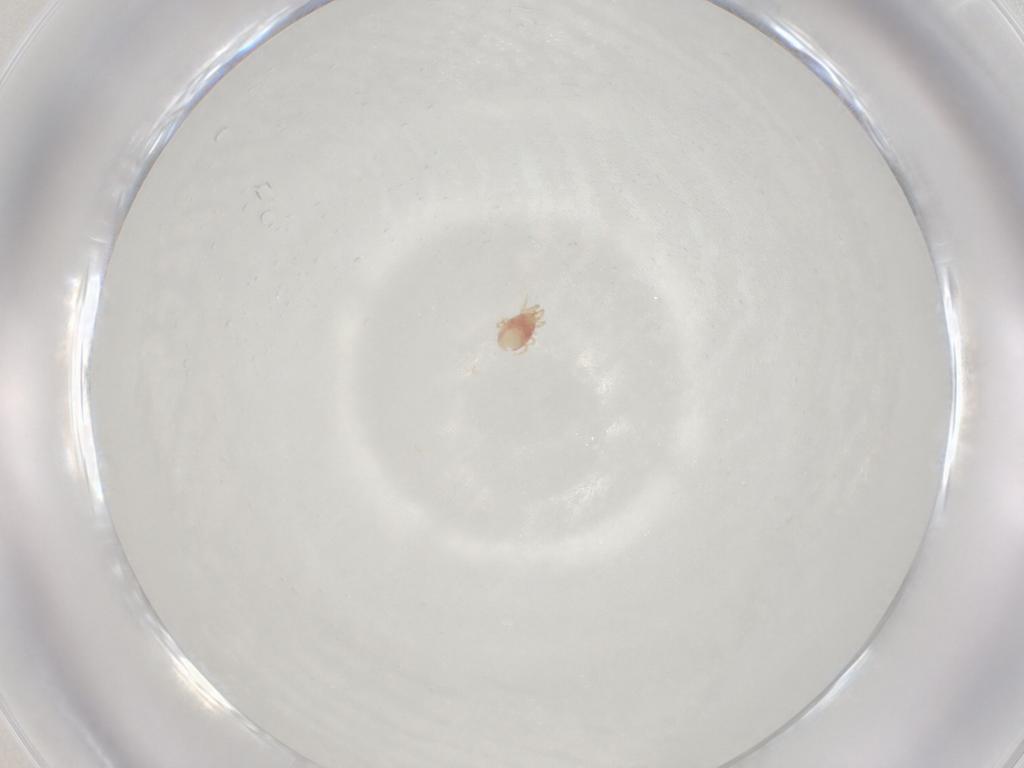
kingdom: Animalia
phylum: Arthropoda
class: Arachnida
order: Mesostigmata
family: Phytoseiidae
